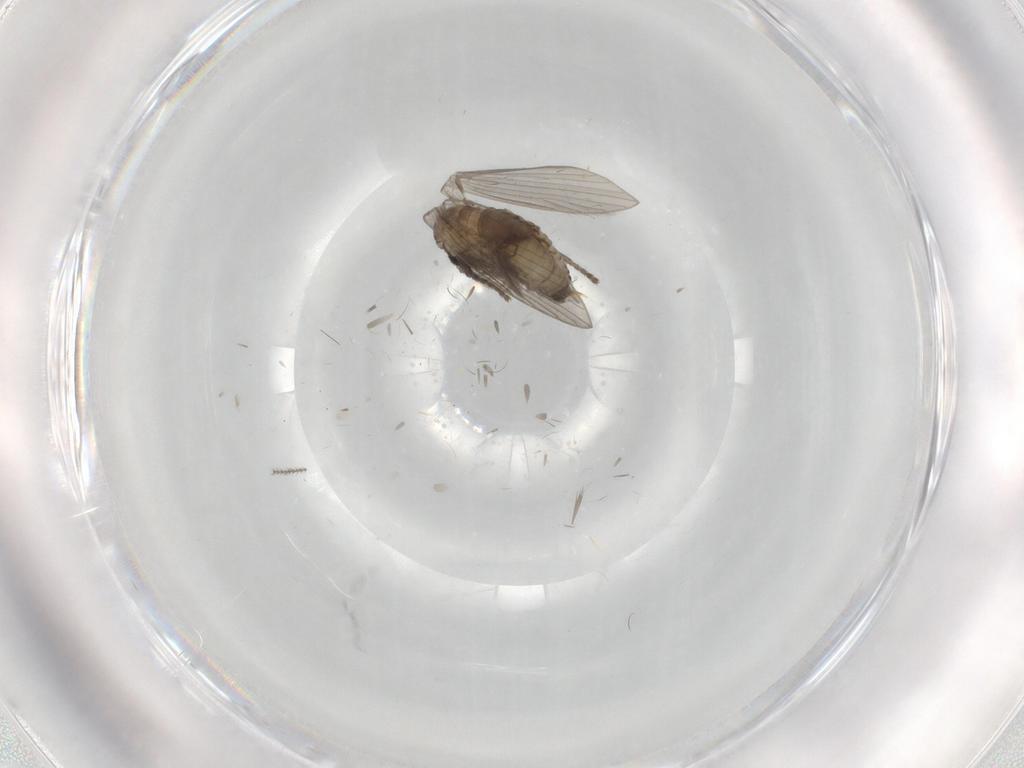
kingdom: Animalia
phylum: Arthropoda
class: Insecta
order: Diptera
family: Psychodidae
